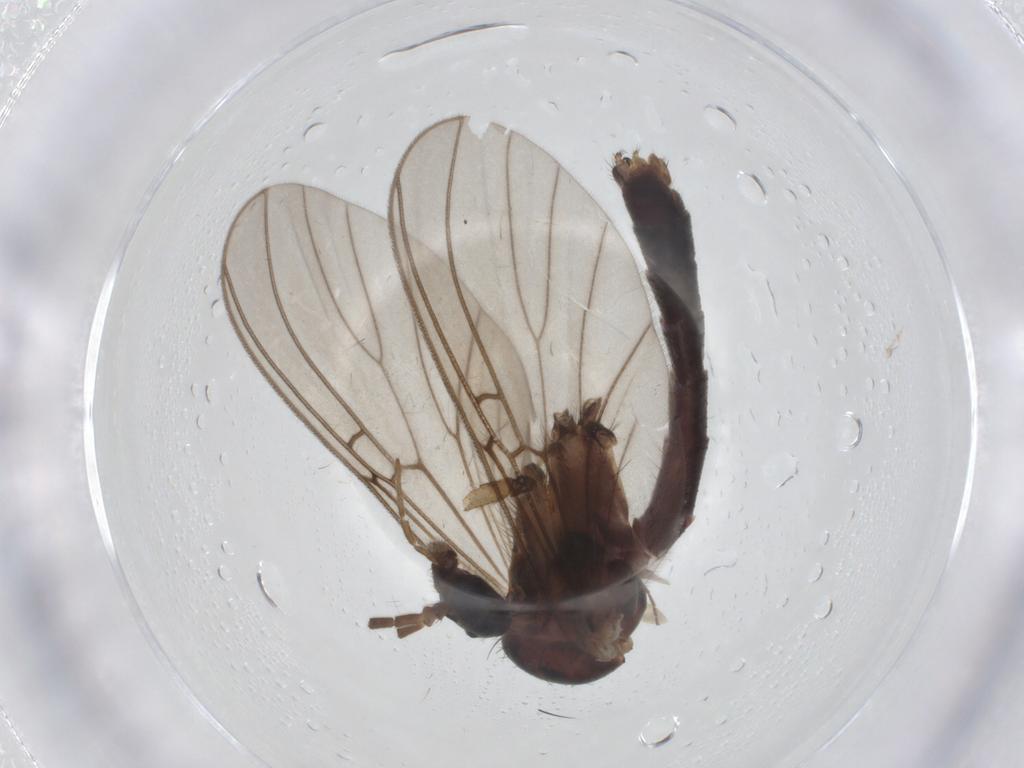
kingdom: Animalia
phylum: Arthropoda
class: Insecta
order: Diptera
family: Mycetophilidae
